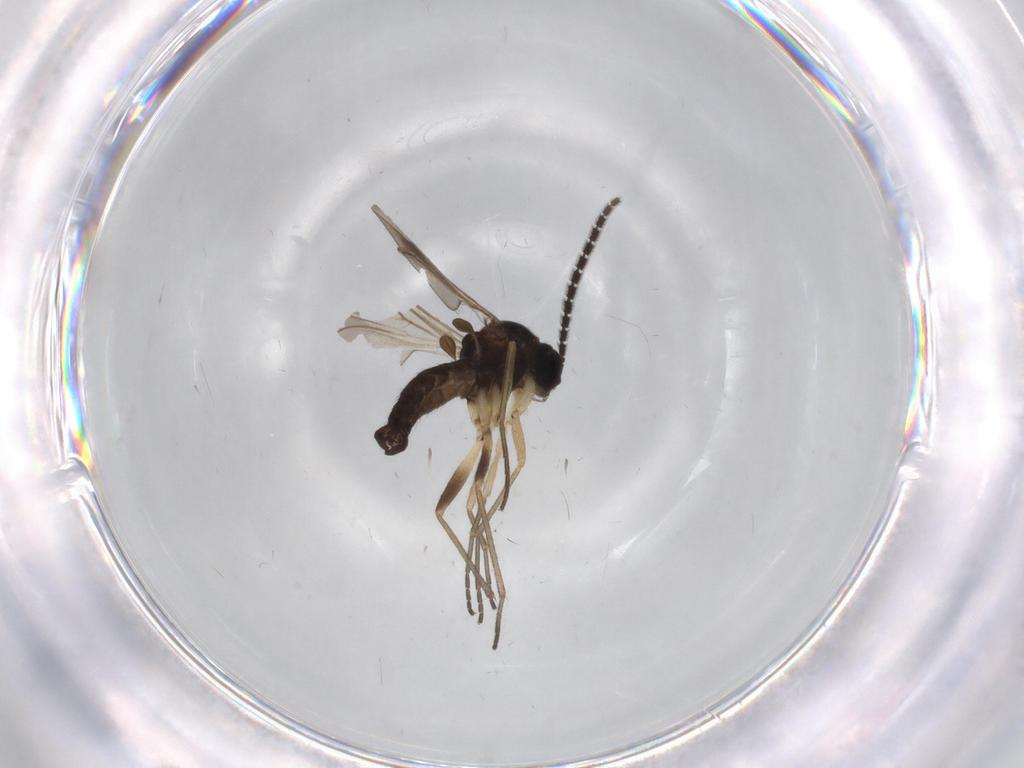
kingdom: Animalia
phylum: Arthropoda
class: Insecta
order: Diptera
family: Sciaridae
